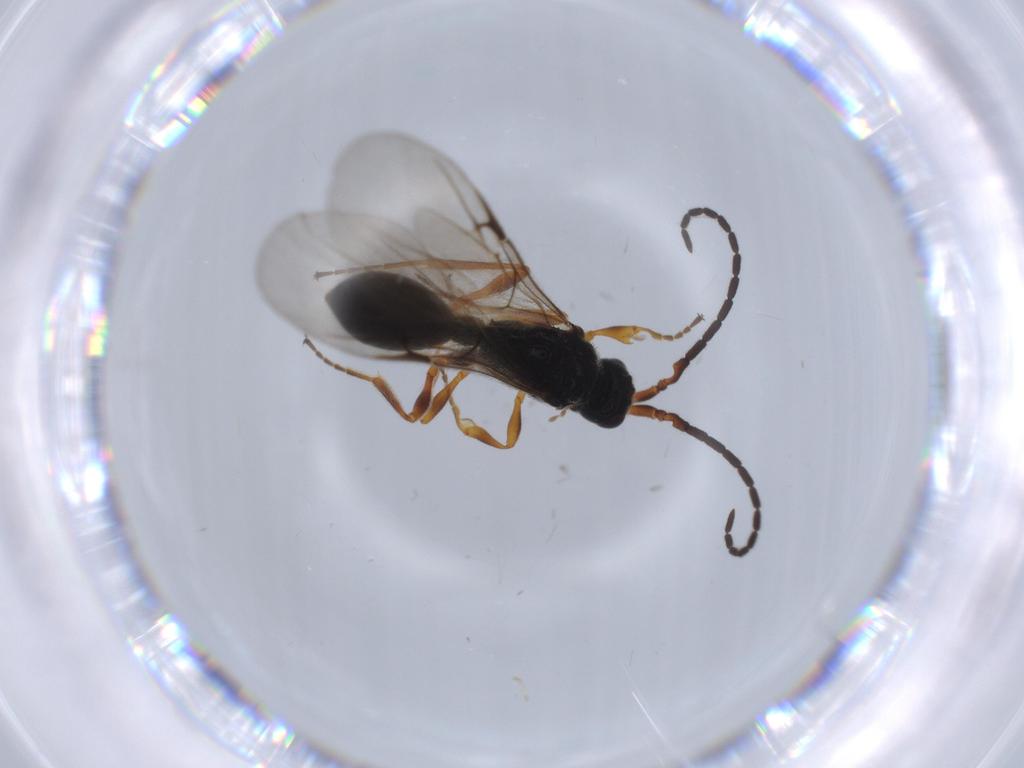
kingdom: Animalia
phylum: Arthropoda
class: Insecta
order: Hymenoptera
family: Vespidae
